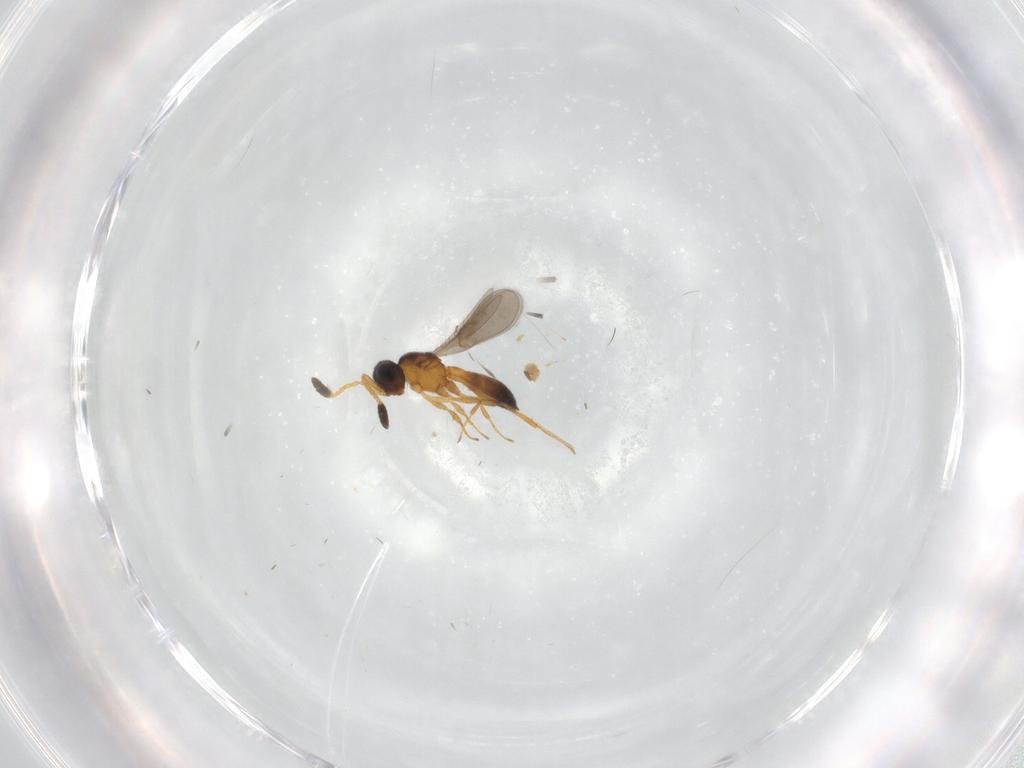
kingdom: Animalia
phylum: Arthropoda
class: Insecta
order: Hymenoptera
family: Scelionidae
